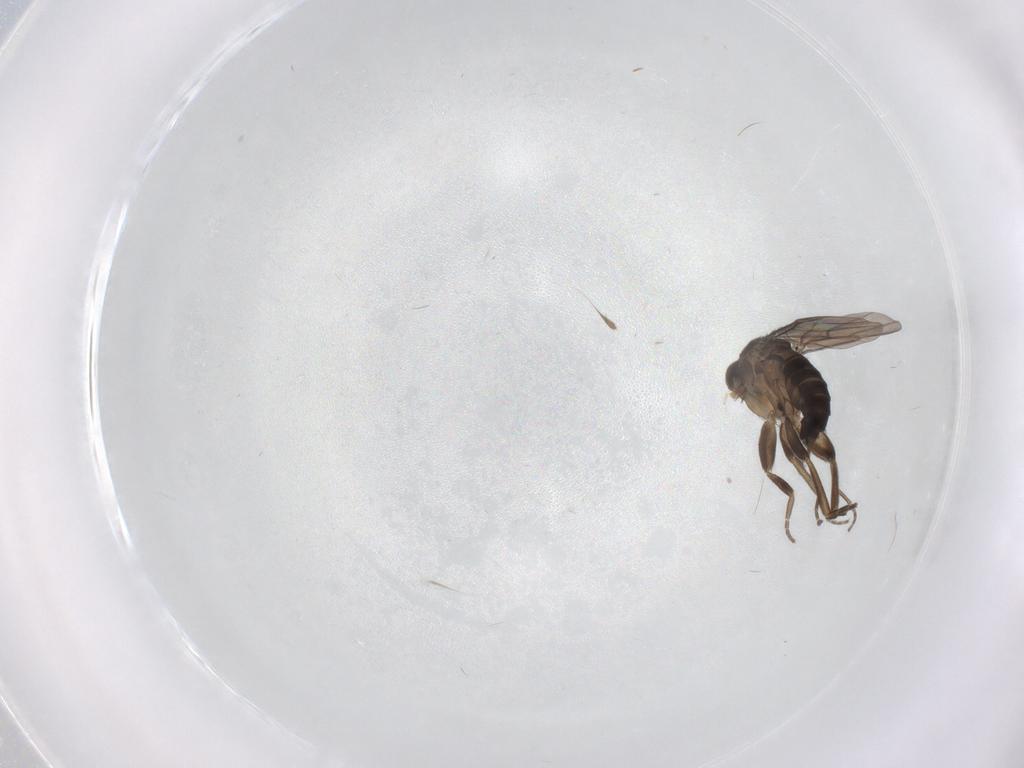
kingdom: Animalia
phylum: Arthropoda
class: Insecta
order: Diptera
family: Phoridae
